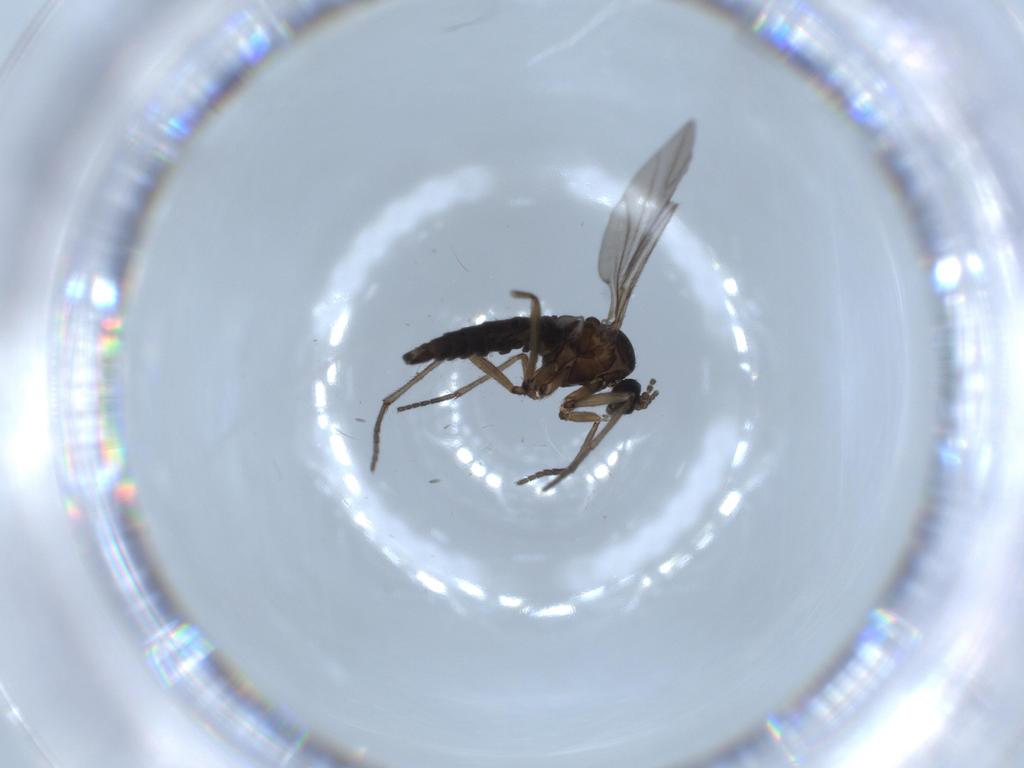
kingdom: Animalia
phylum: Arthropoda
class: Insecta
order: Diptera
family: Sciaridae
